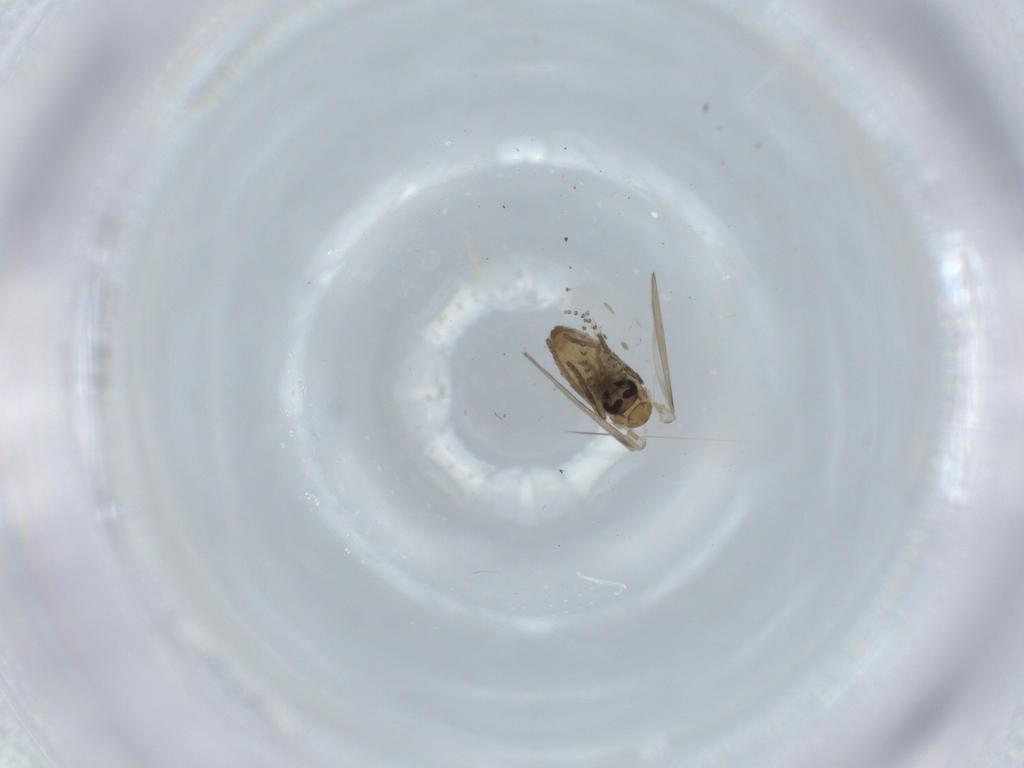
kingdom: Animalia
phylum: Arthropoda
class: Insecta
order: Diptera
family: Psychodidae
